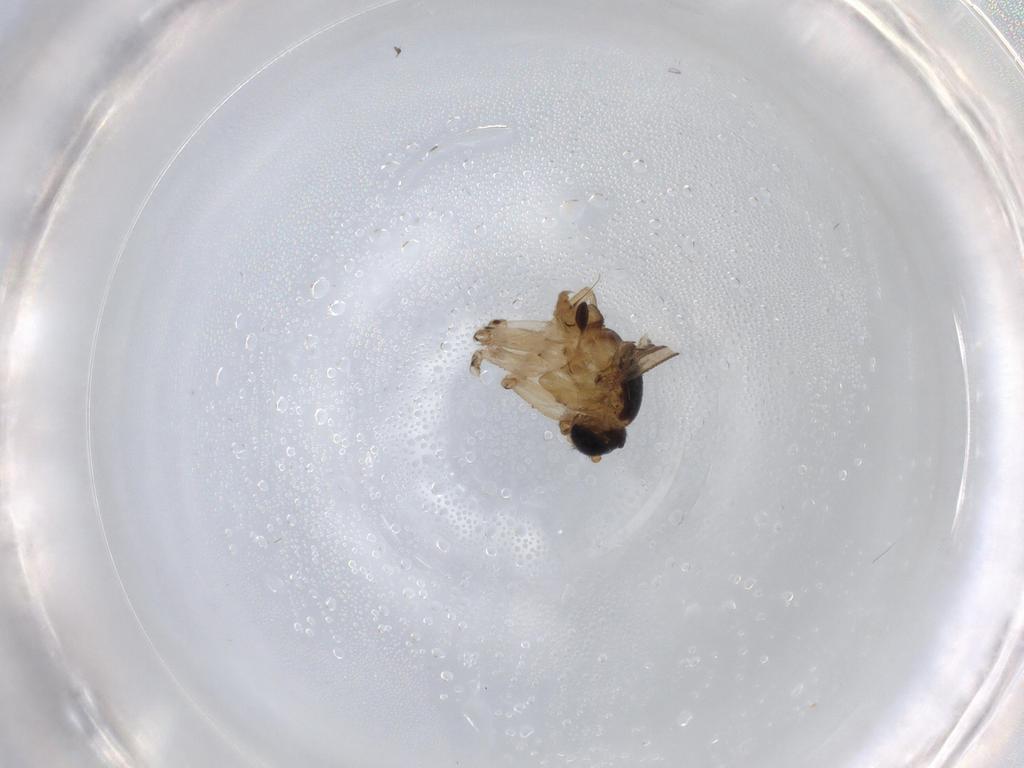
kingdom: Animalia
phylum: Arthropoda
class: Insecta
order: Diptera
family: Sciaridae
